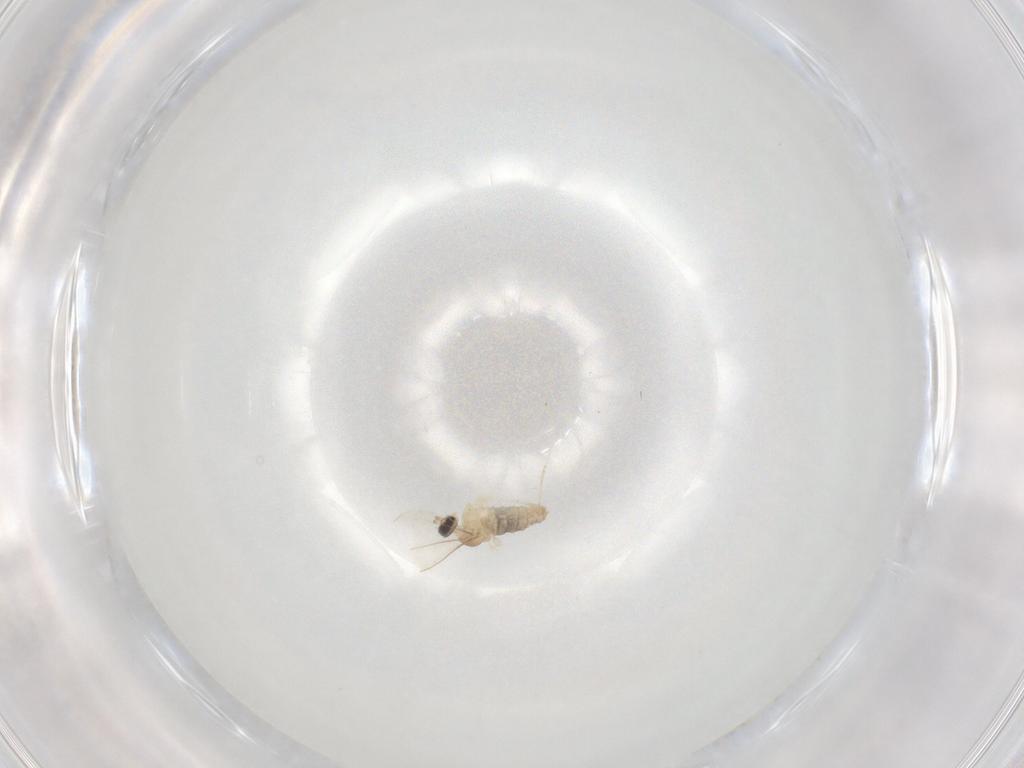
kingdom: Animalia
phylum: Arthropoda
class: Insecta
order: Diptera
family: Cecidomyiidae
